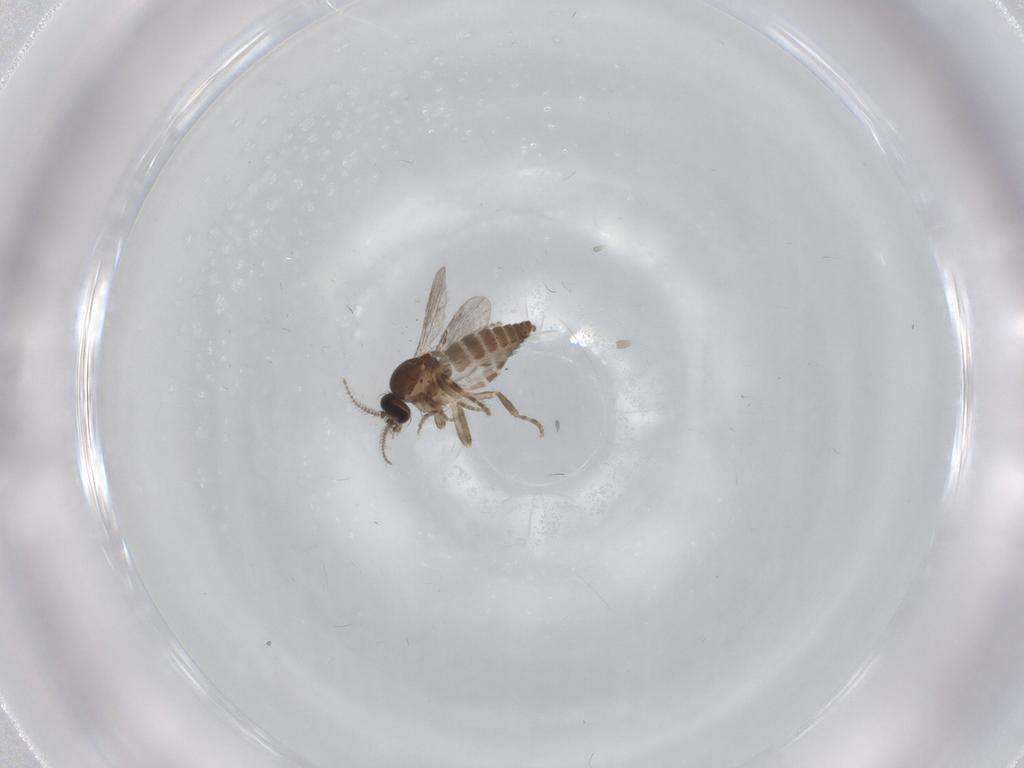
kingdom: Animalia
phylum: Arthropoda
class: Insecta
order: Diptera
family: Ceratopogonidae
